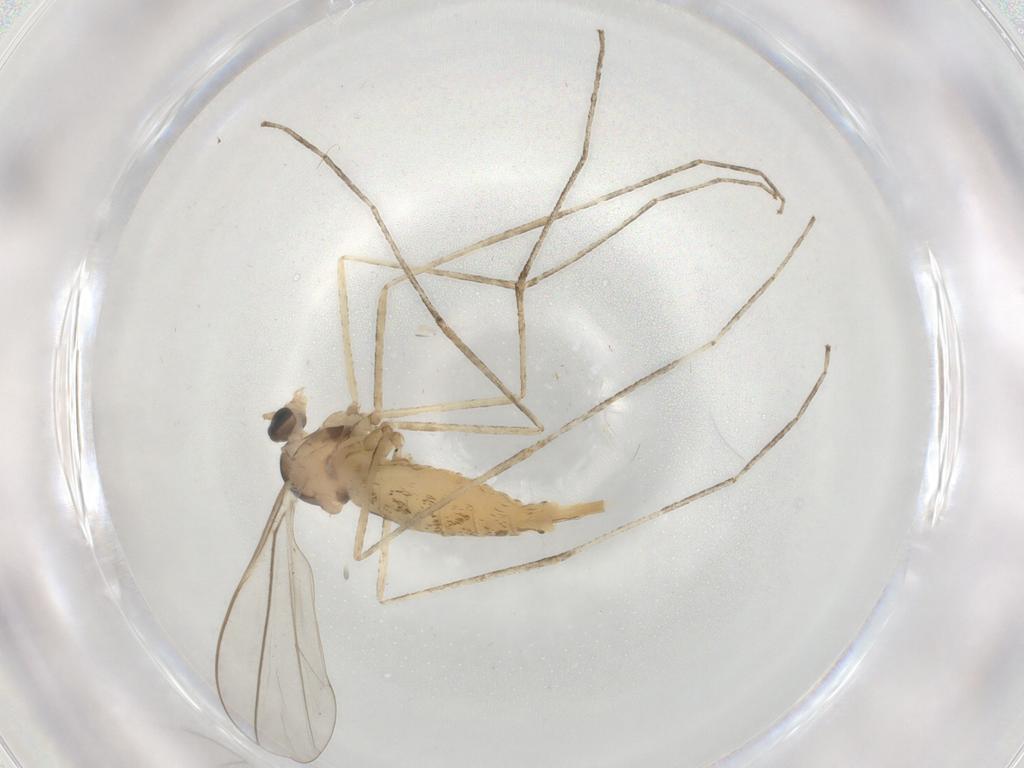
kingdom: Animalia
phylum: Arthropoda
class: Insecta
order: Diptera
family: Cecidomyiidae
